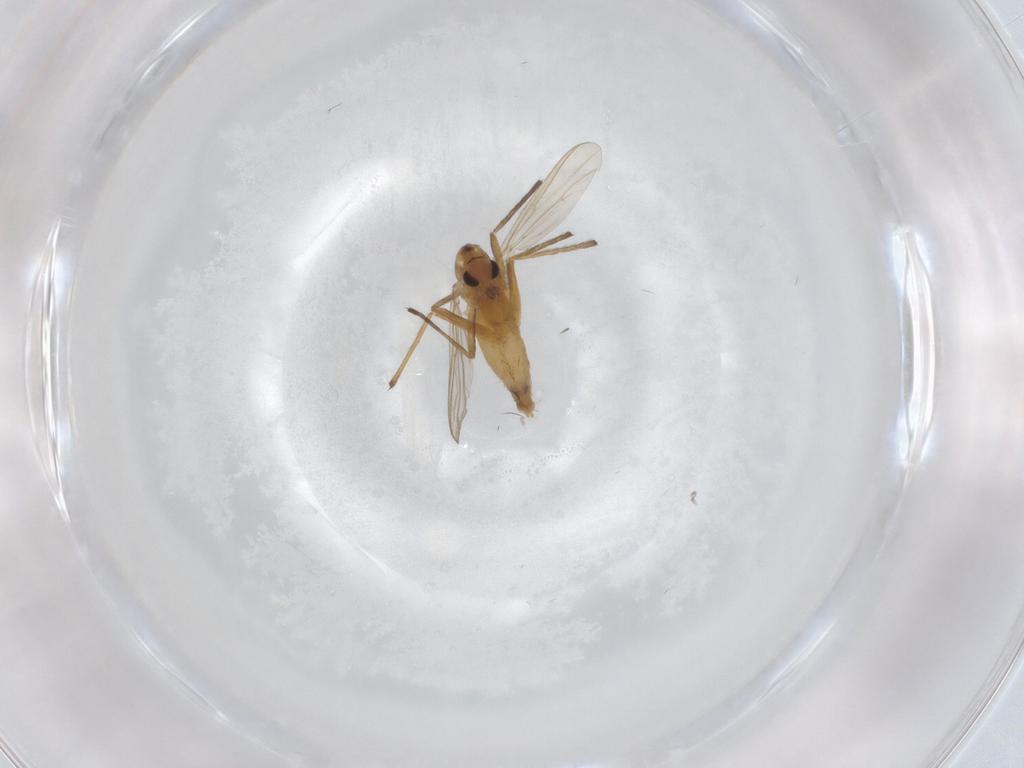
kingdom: Animalia
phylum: Arthropoda
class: Insecta
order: Diptera
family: Chironomidae
